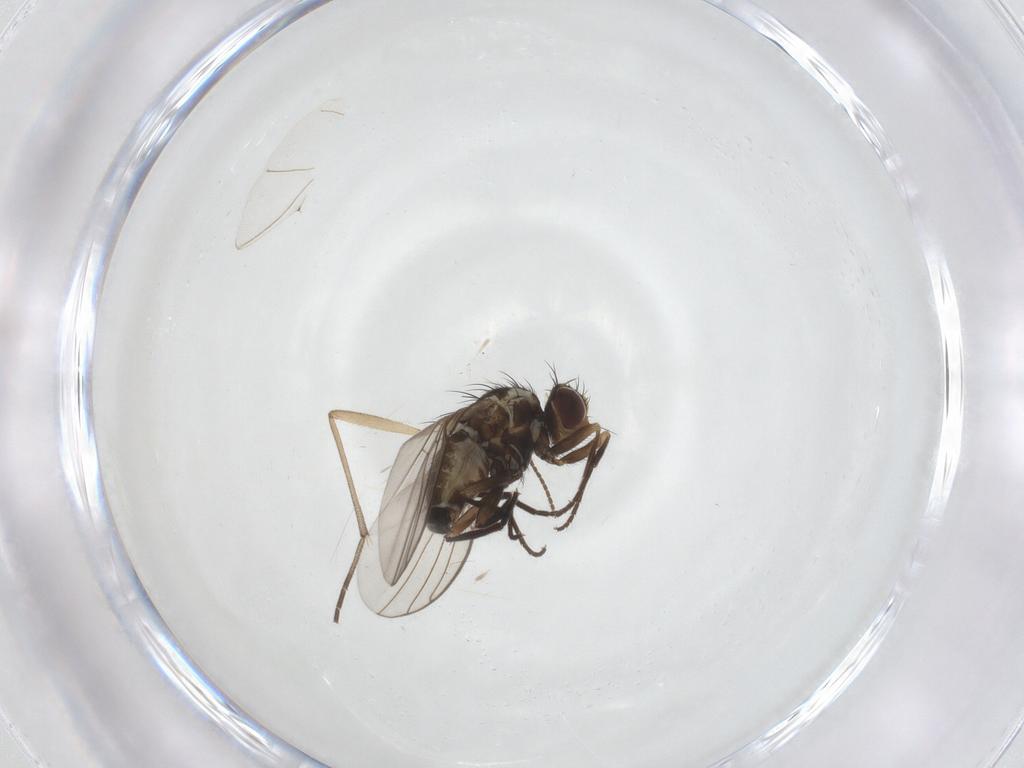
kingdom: Animalia
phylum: Arthropoda
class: Insecta
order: Diptera
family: Agromyzidae
